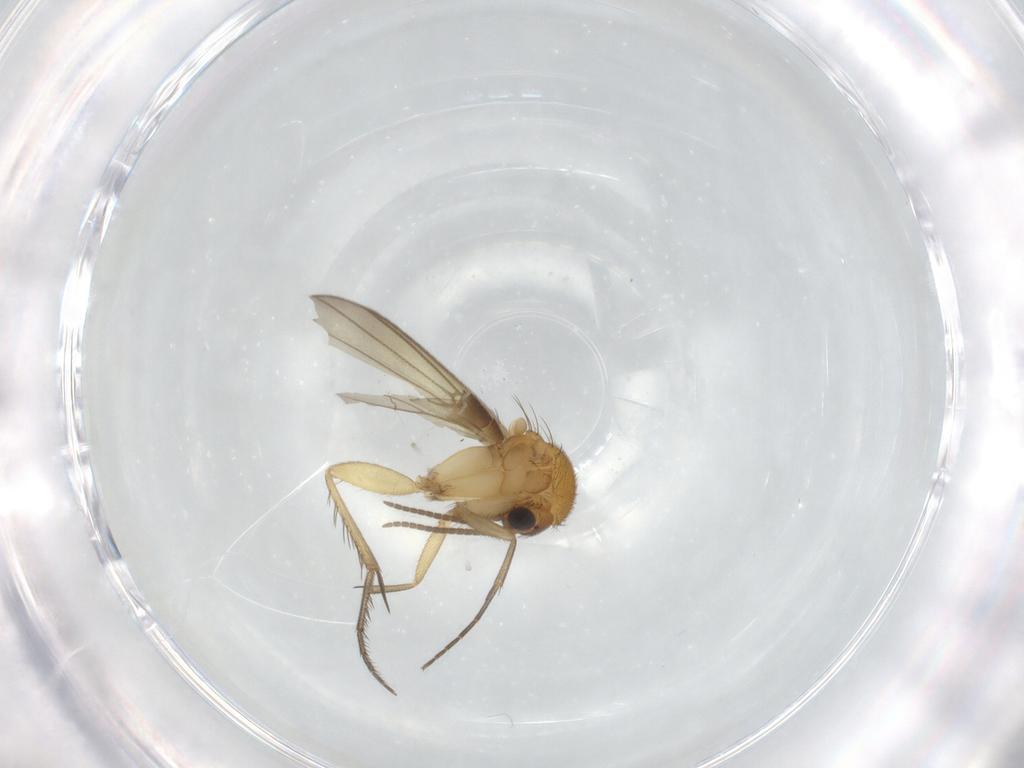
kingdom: Animalia
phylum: Arthropoda
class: Insecta
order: Diptera
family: Mycetophilidae
